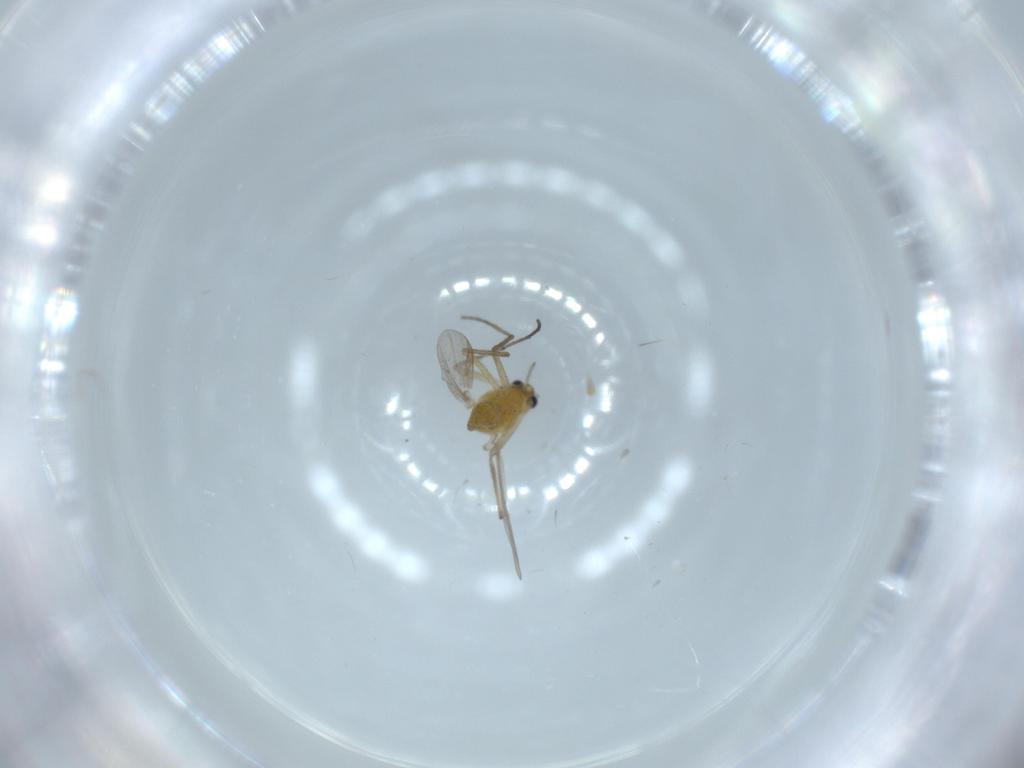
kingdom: Animalia
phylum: Arthropoda
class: Insecta
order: Diptera
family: Chironomidae
